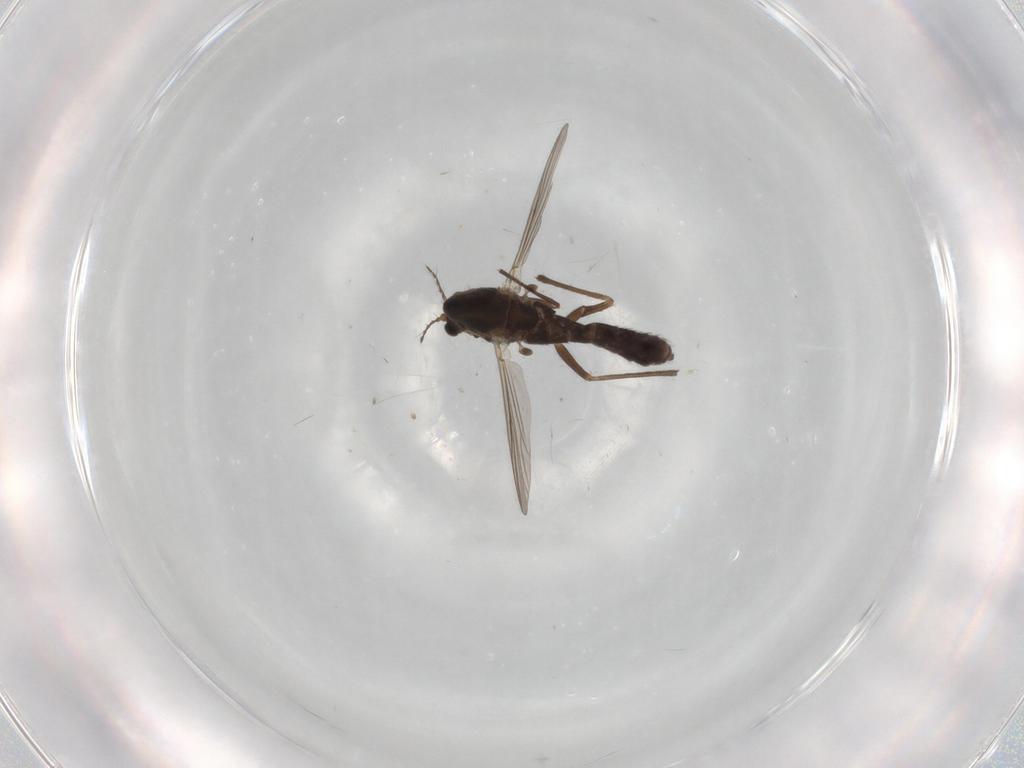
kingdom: Animalia
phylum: Arthropoda
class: Insecta
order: Diptera
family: Chironomidae
